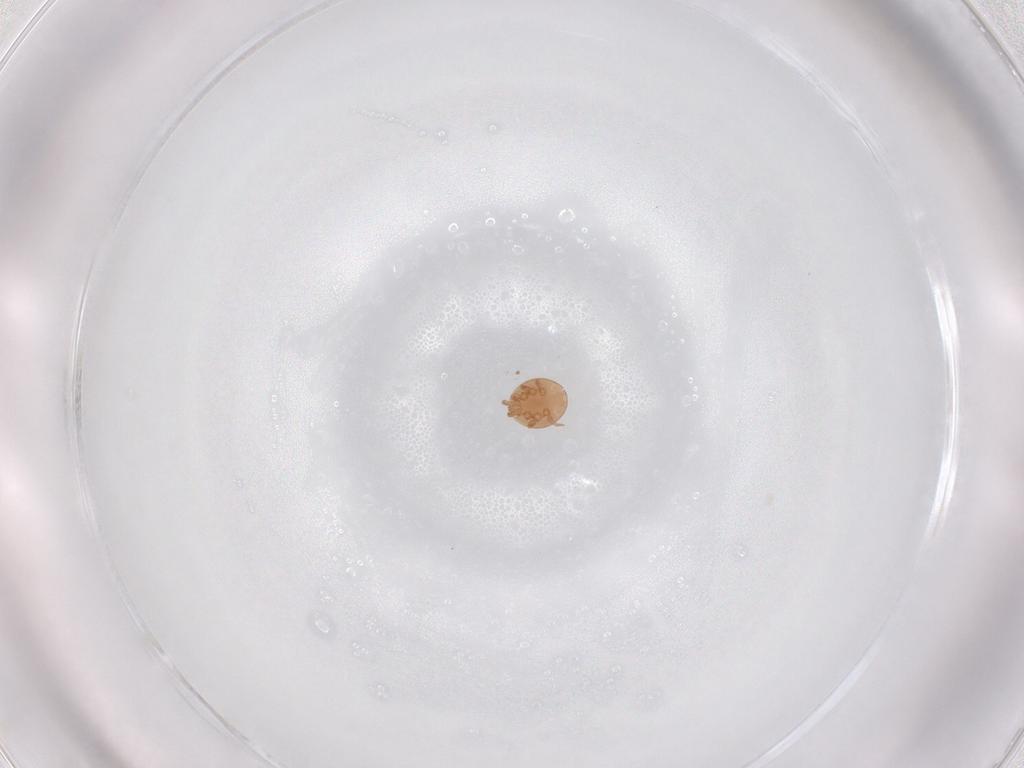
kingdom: Animalia
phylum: Arthropoda
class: Arachnida
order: Mesostigmata
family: Trematuridae
